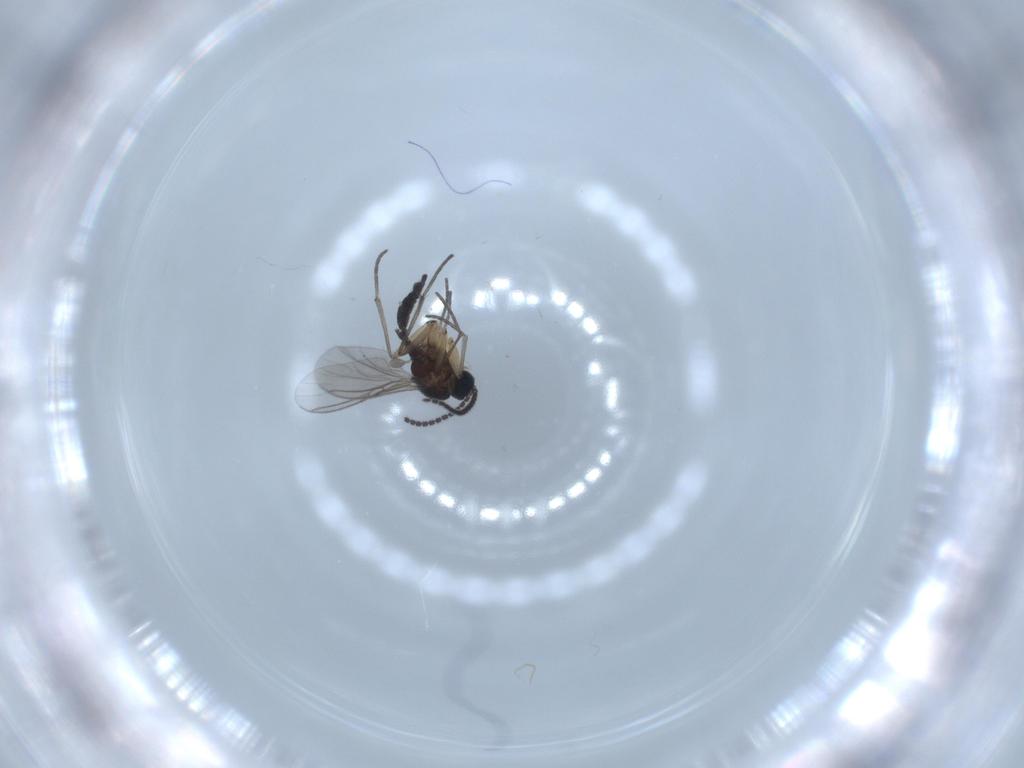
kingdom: Animalia
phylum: Arthropoda
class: Insecta
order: Diptera
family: Sciaridae
